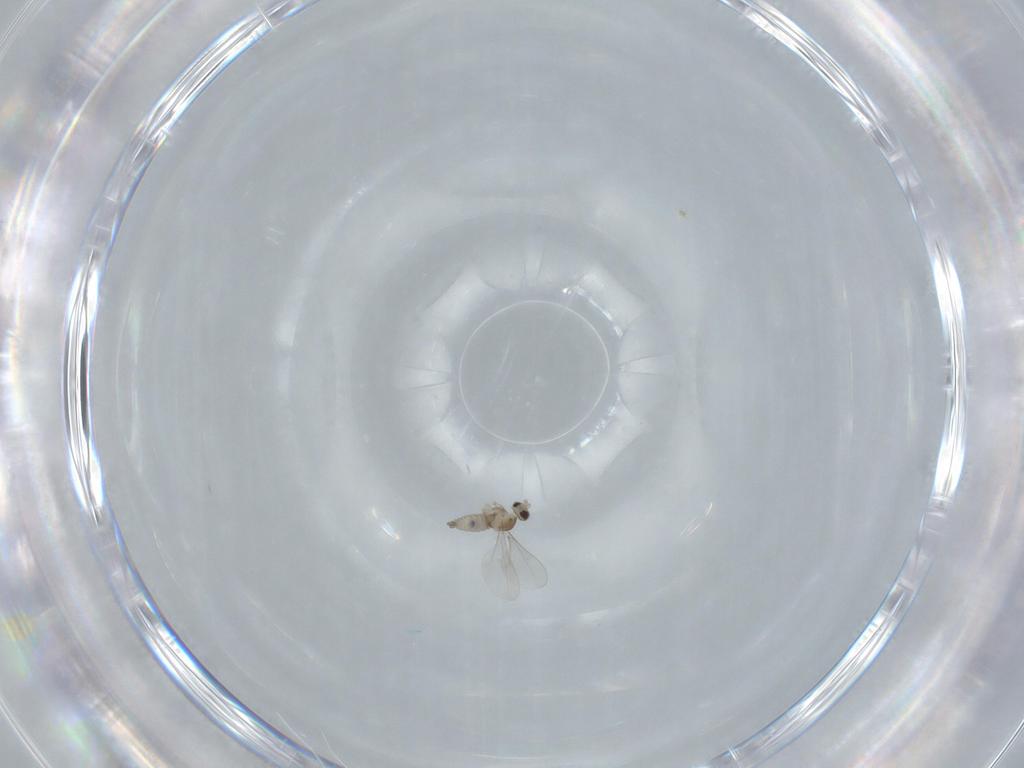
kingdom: Animalia
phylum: Arthropoda
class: Insecta
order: Diptera
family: Cecidomyiidae
